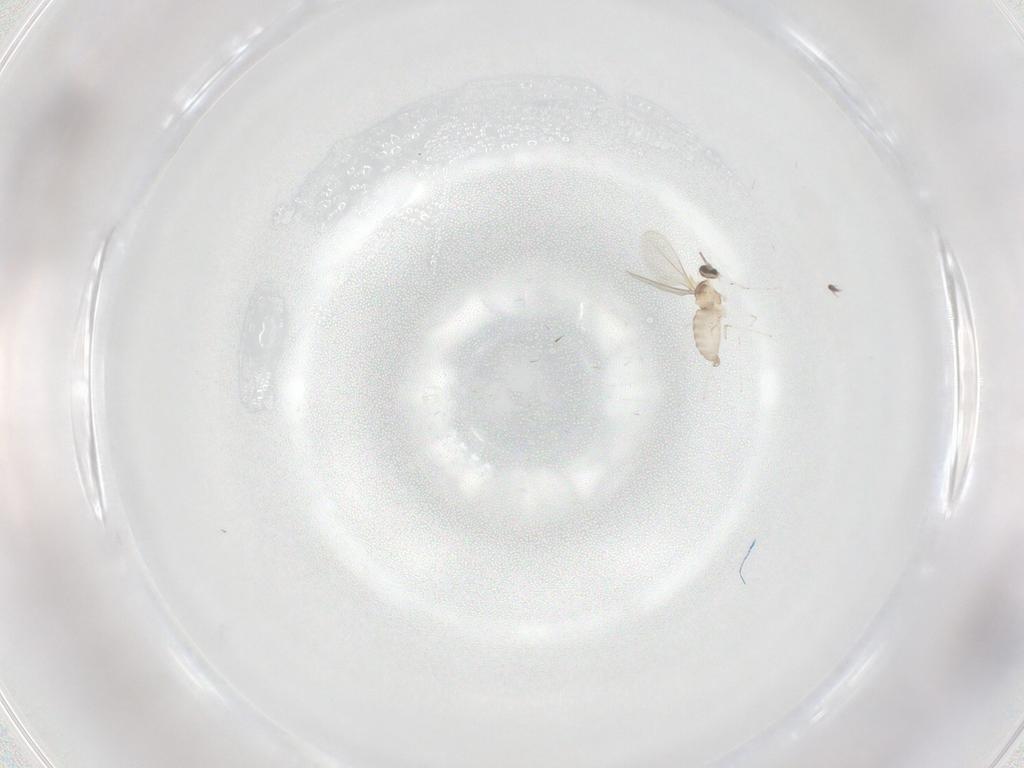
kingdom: Animalia
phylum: Arthropoda
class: Insecta
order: Diptera
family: Cecidomyiidae
